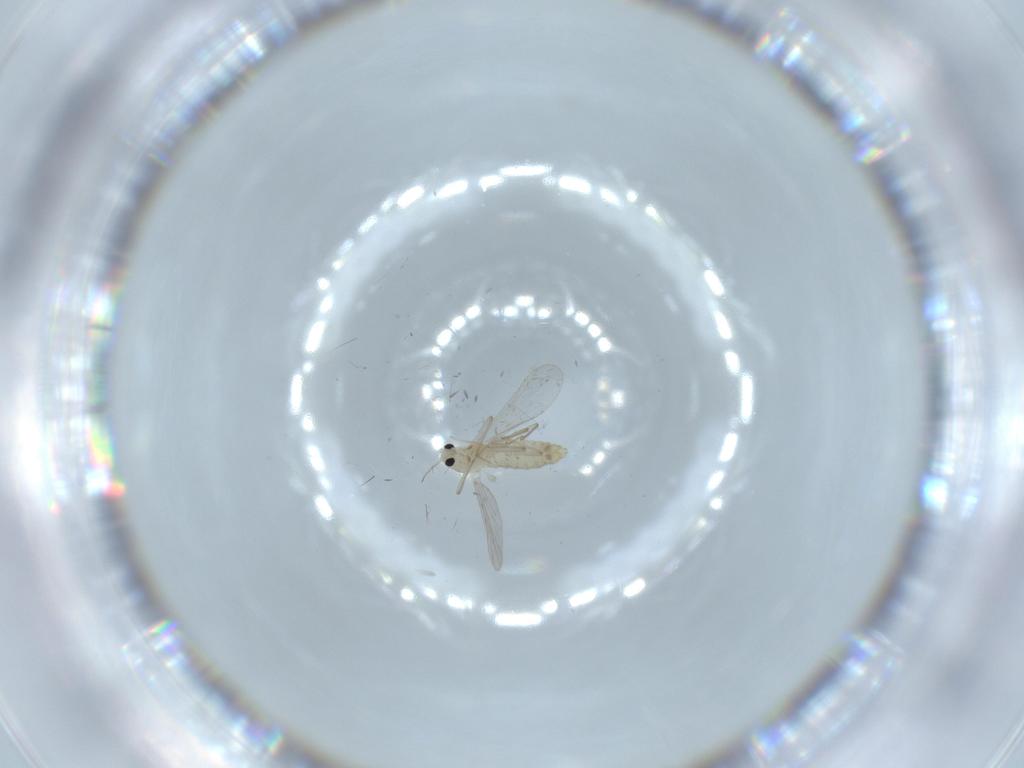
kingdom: Animalia
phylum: Arthropoda
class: Insecta
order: Diptera
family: Chironomidae
